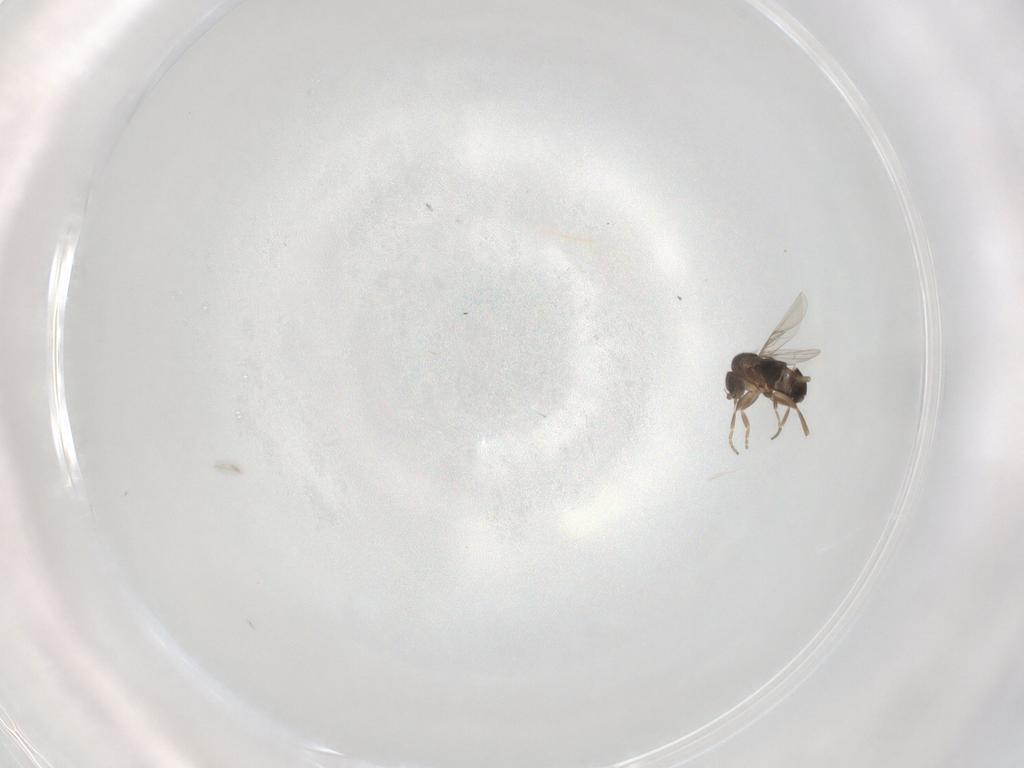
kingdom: Animalia
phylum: Arthropoda
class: Insecta
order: Diptera
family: Phoridae
